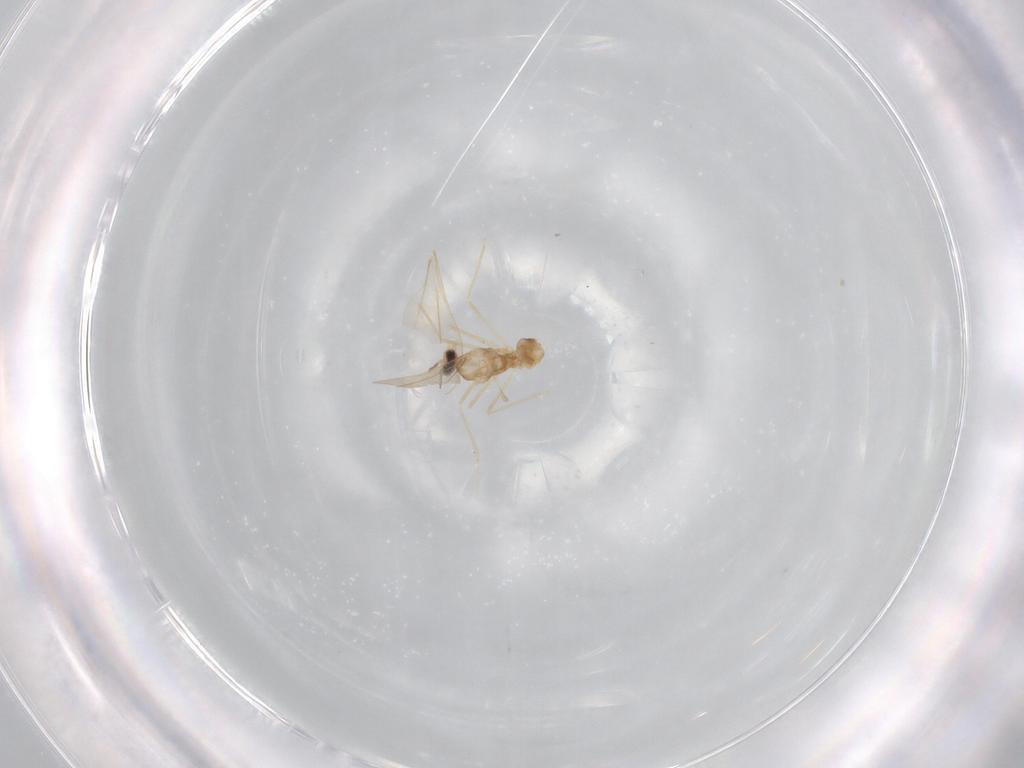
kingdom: Animalia
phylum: Arthropoda
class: Insecta
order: Diptera
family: Cecidomyiidae
